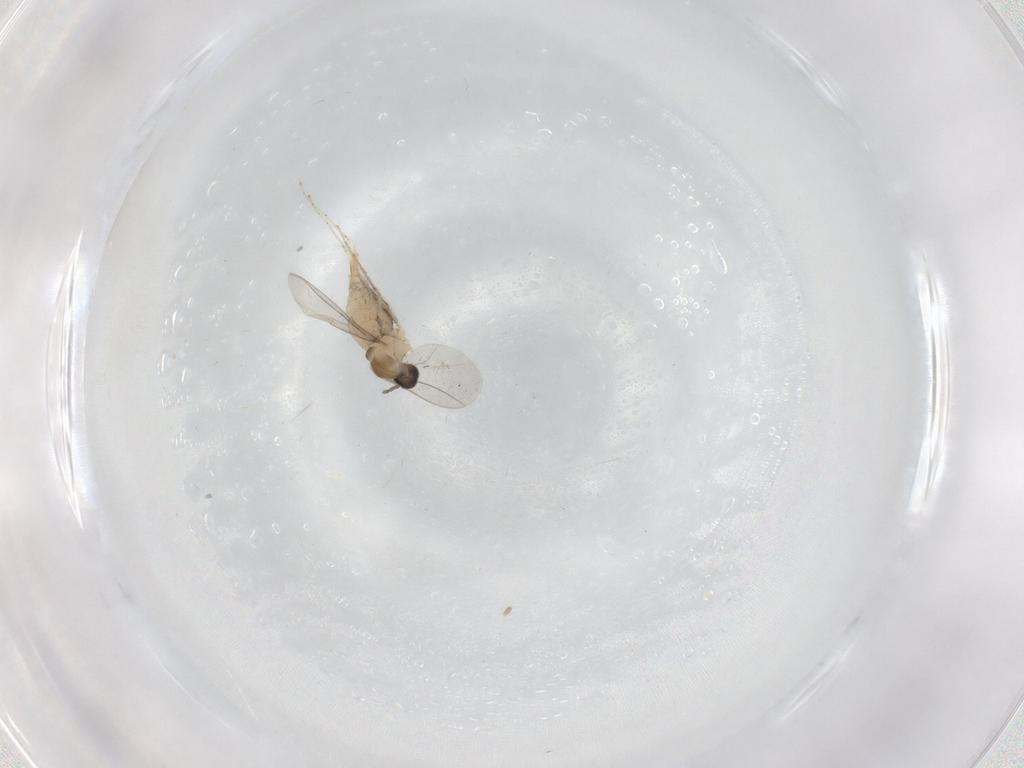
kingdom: Animalia
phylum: Arthropoda
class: Insecta
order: Diptera
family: Cecidomyiidae
